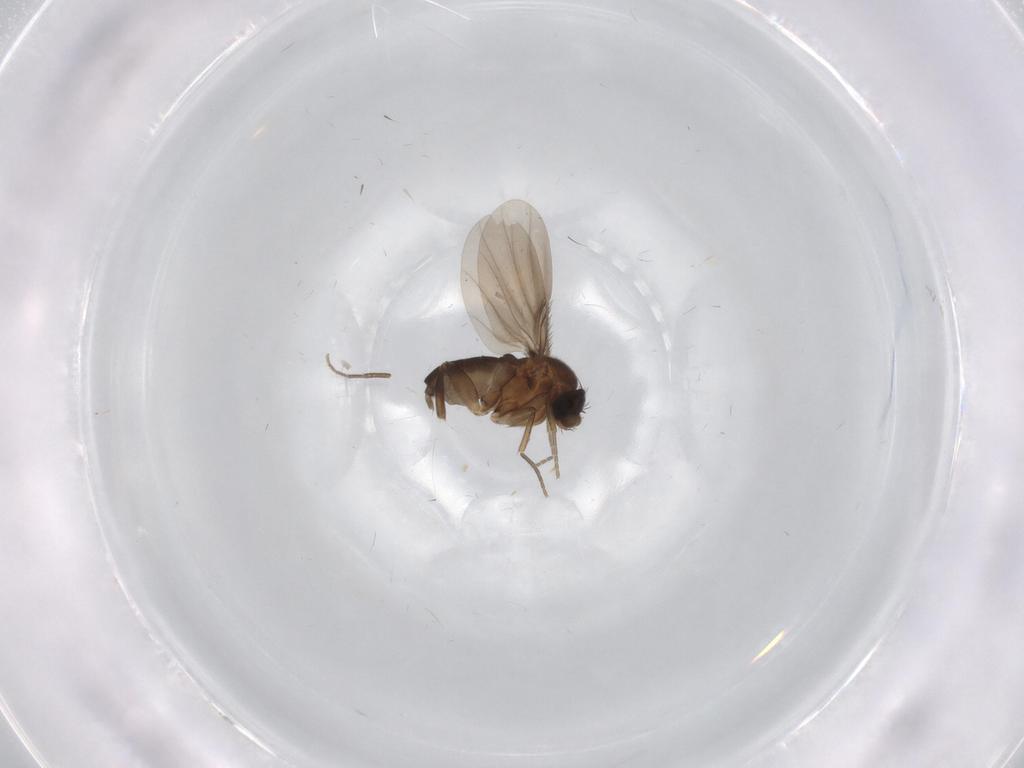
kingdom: Animalia
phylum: Arthropoda
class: Insecta
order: Diptera
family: Phoridae
